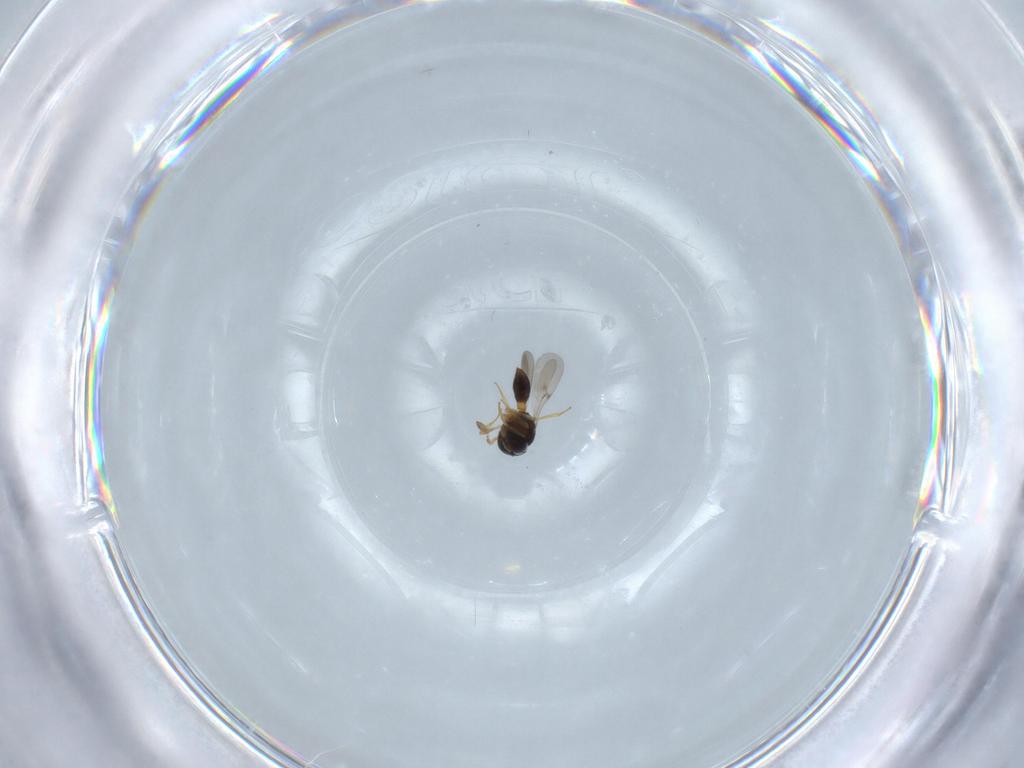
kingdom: Animalia
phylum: Arthropoda
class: Insecta
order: Hymenoptera
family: Scelionidae
